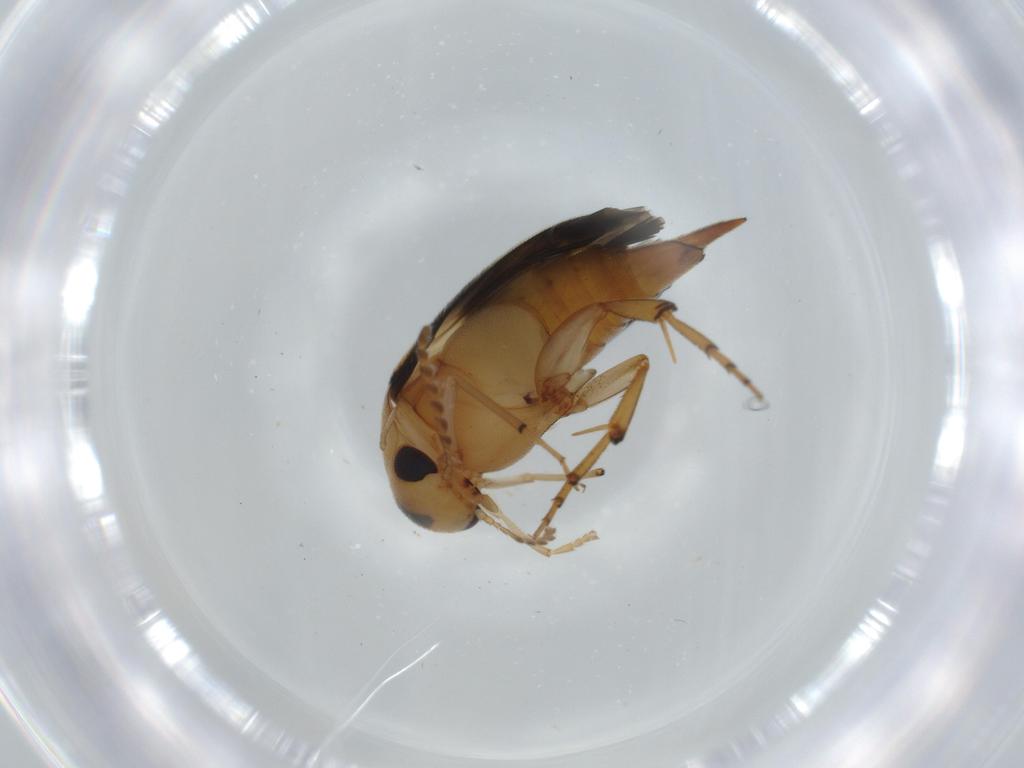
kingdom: Animalia
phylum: Arthropoda
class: Insecta
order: Coleoptera
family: Mordellidae
